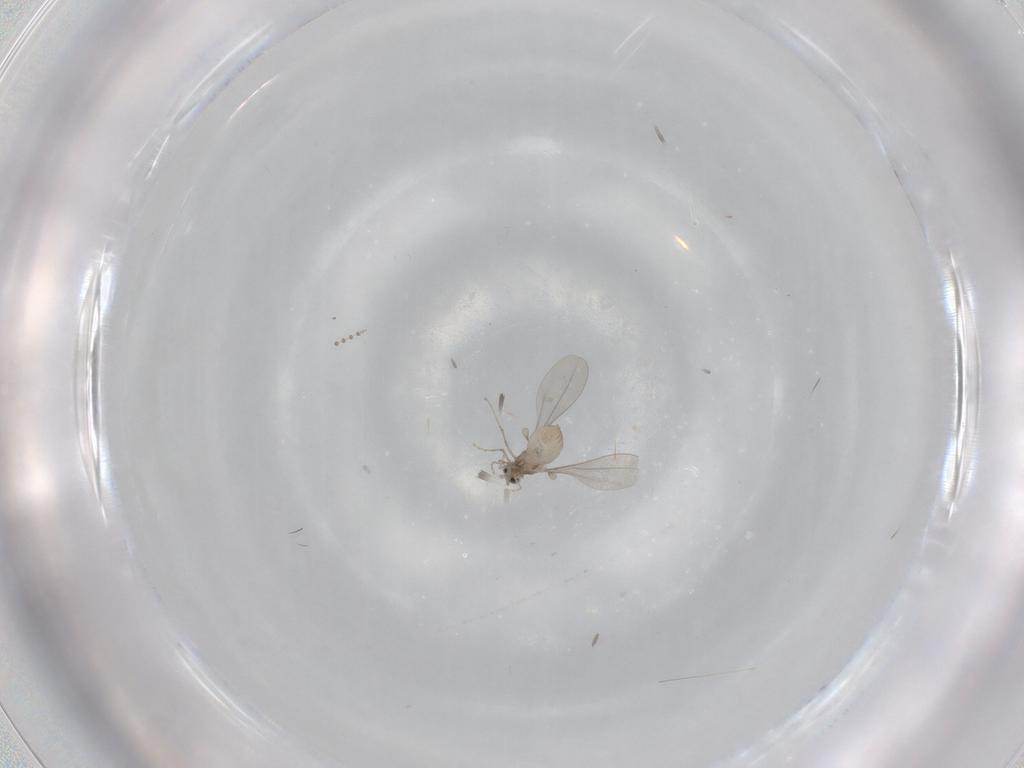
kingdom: Animalia
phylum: Arthropoda
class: Insecta
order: Diptera
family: Cecidomyiidae
